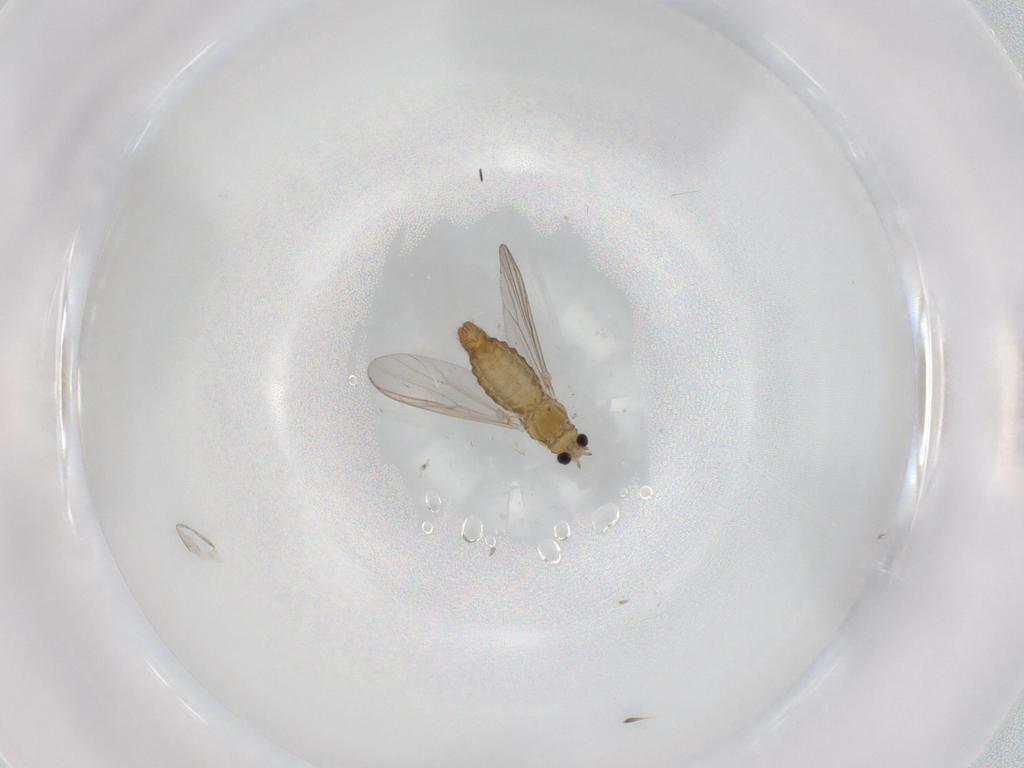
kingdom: Animalia
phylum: Arthropoda
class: Insecta
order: Diptera
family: Chironomidae
